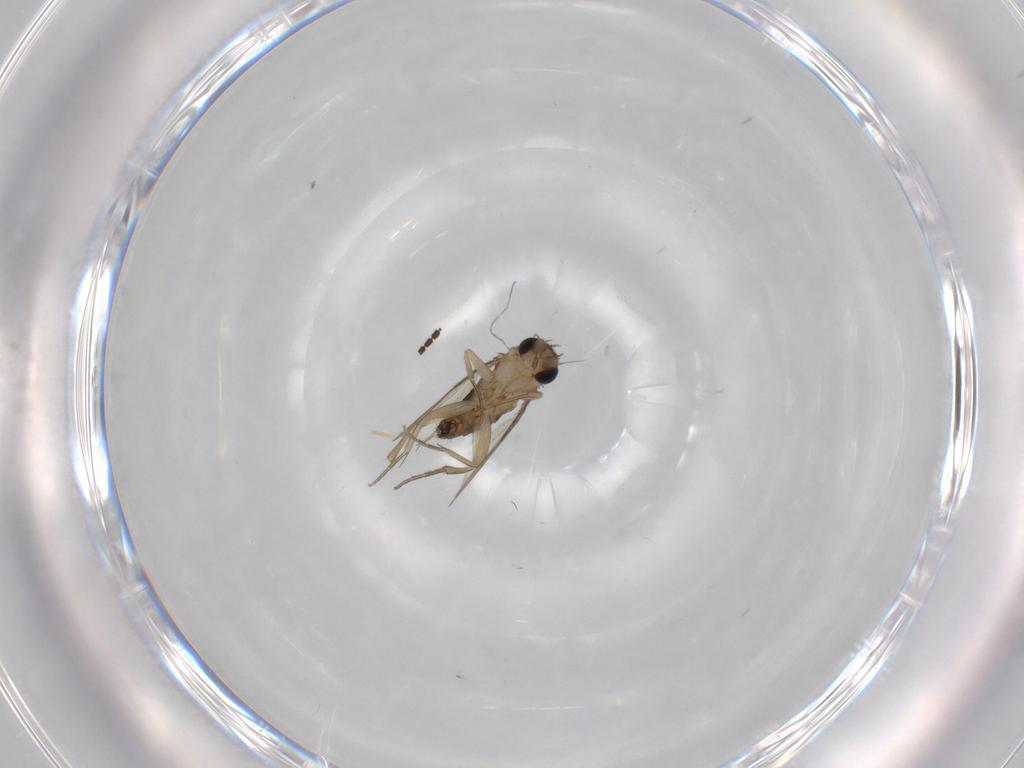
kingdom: Animalia
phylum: Arthropoda
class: Insecta
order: Diptera
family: Sciaridae
